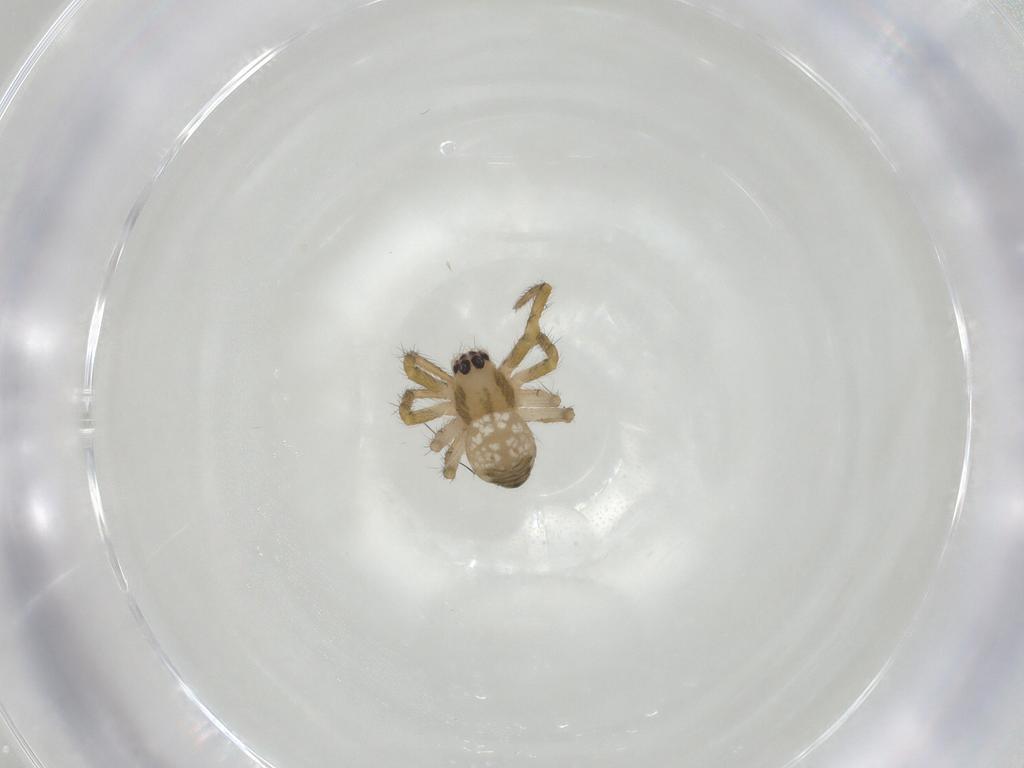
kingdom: Animalia
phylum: Arthropoda
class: Arachnida
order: Araneae
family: Araneidae
